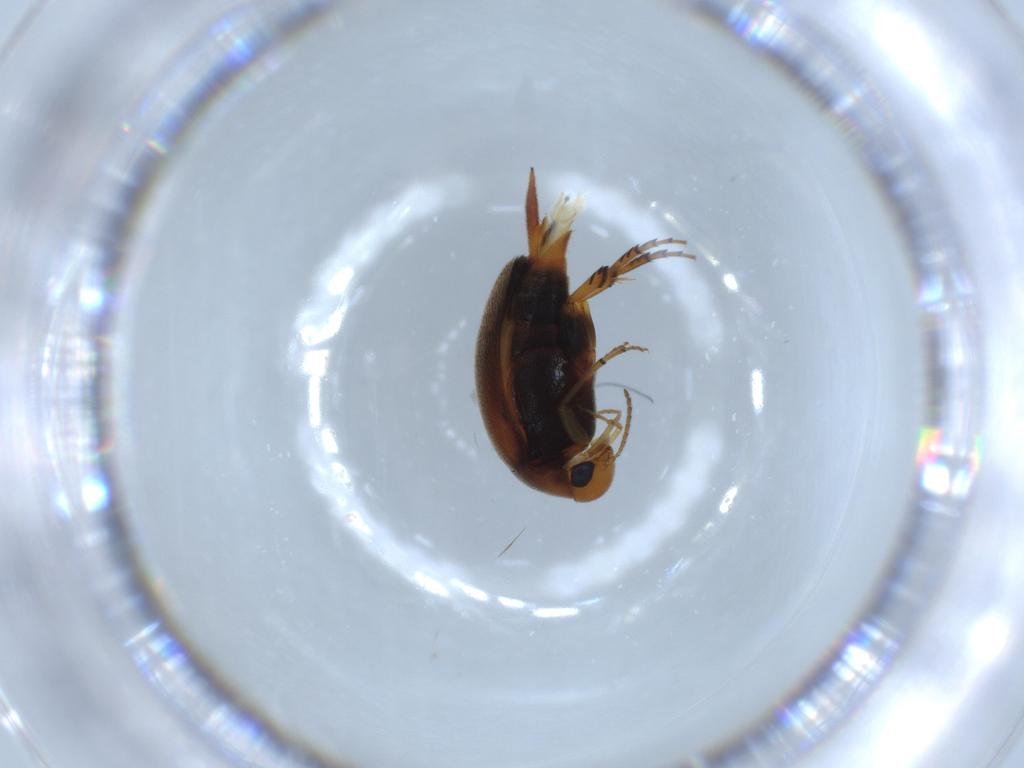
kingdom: Animalia
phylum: Arthropoda
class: Insecta
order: Coleoptera
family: Mordellidae
